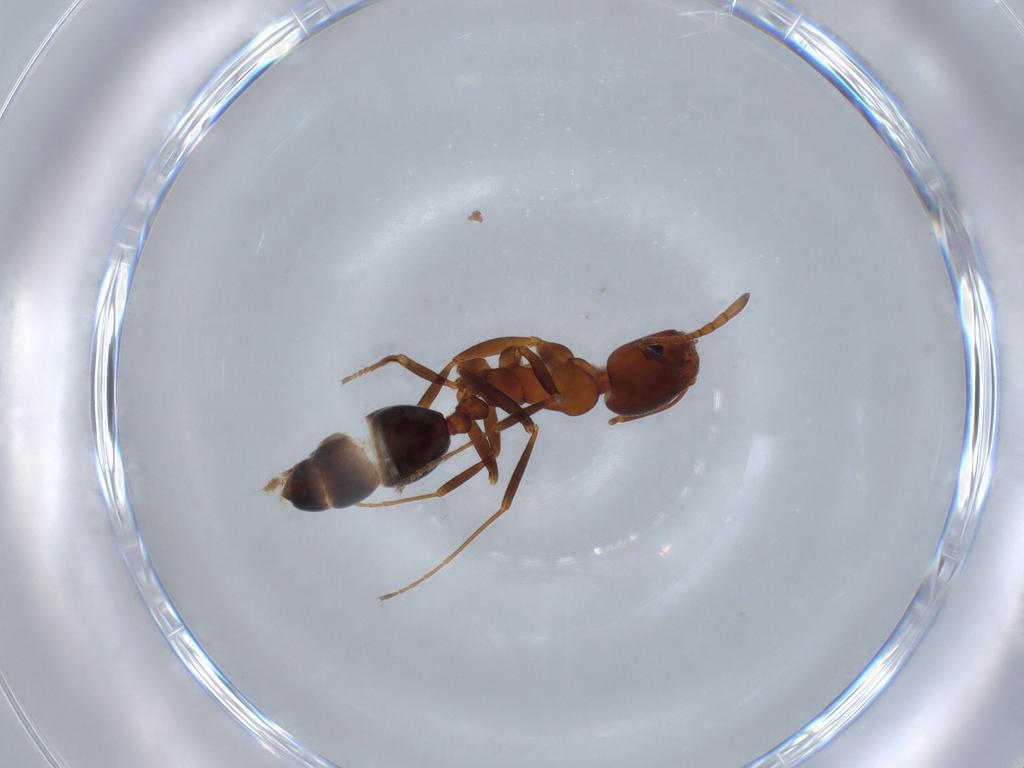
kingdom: Animalia
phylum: Arthropoda
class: Insecta
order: Hymenoptera
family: Formicidae
